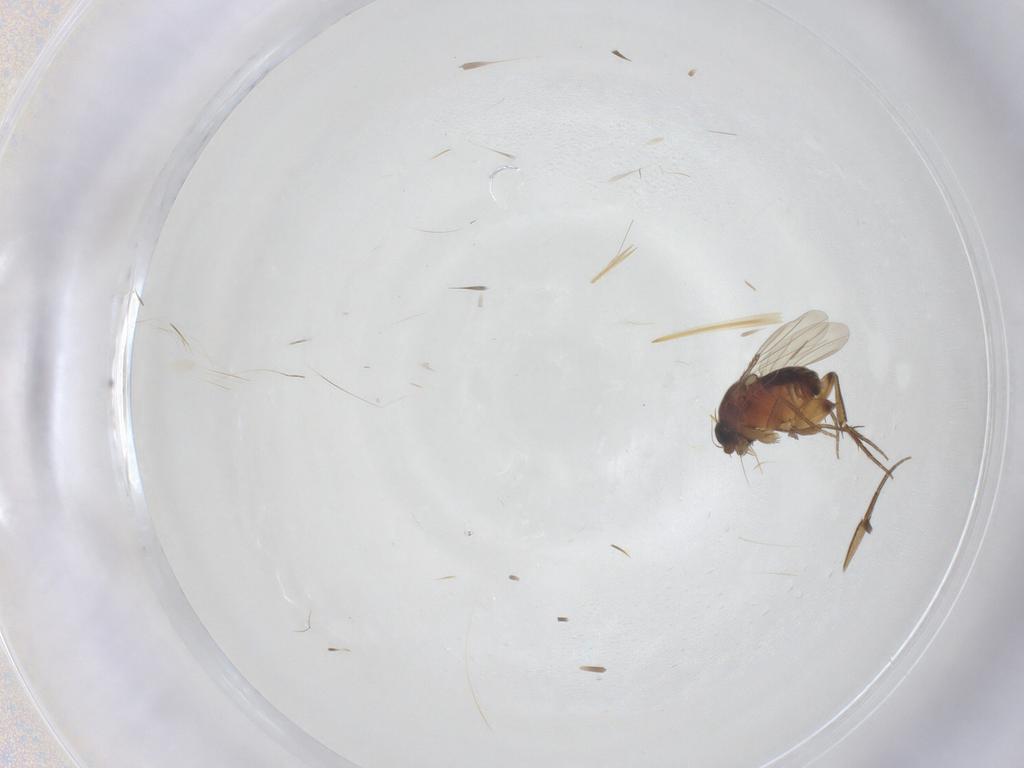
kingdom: Animalia
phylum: Arthropoda
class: Insecta
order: Diptera
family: Phoridae
